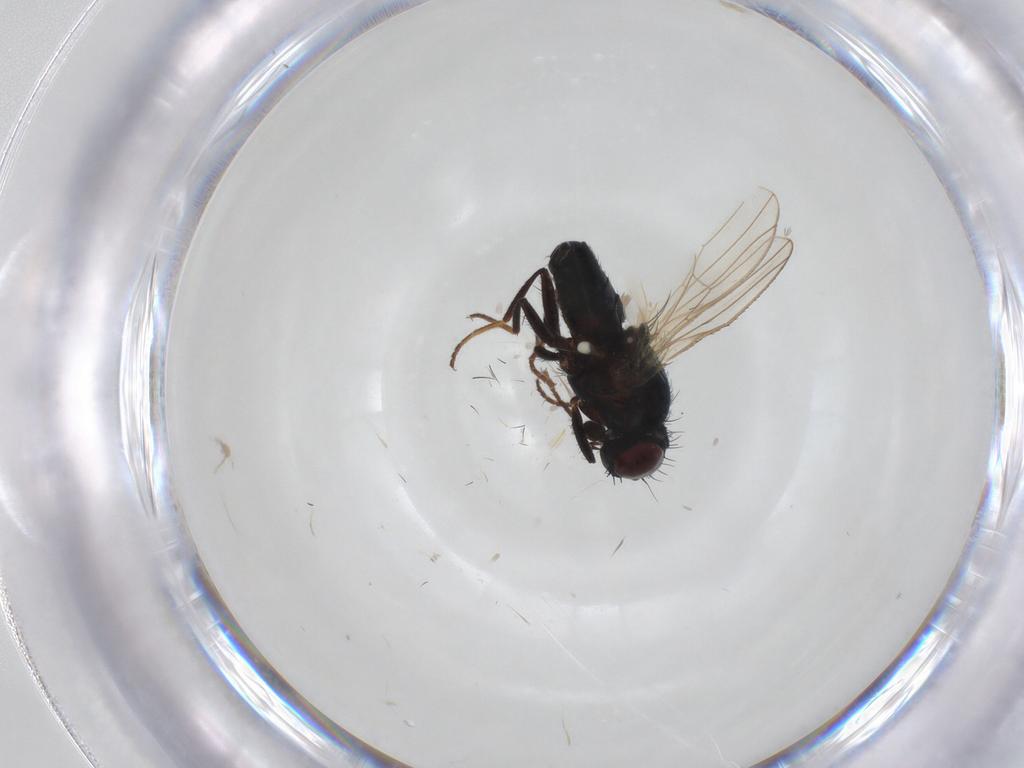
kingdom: Animalia
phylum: Arthropoda
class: Insecta
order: Diptera
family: Carnidae
